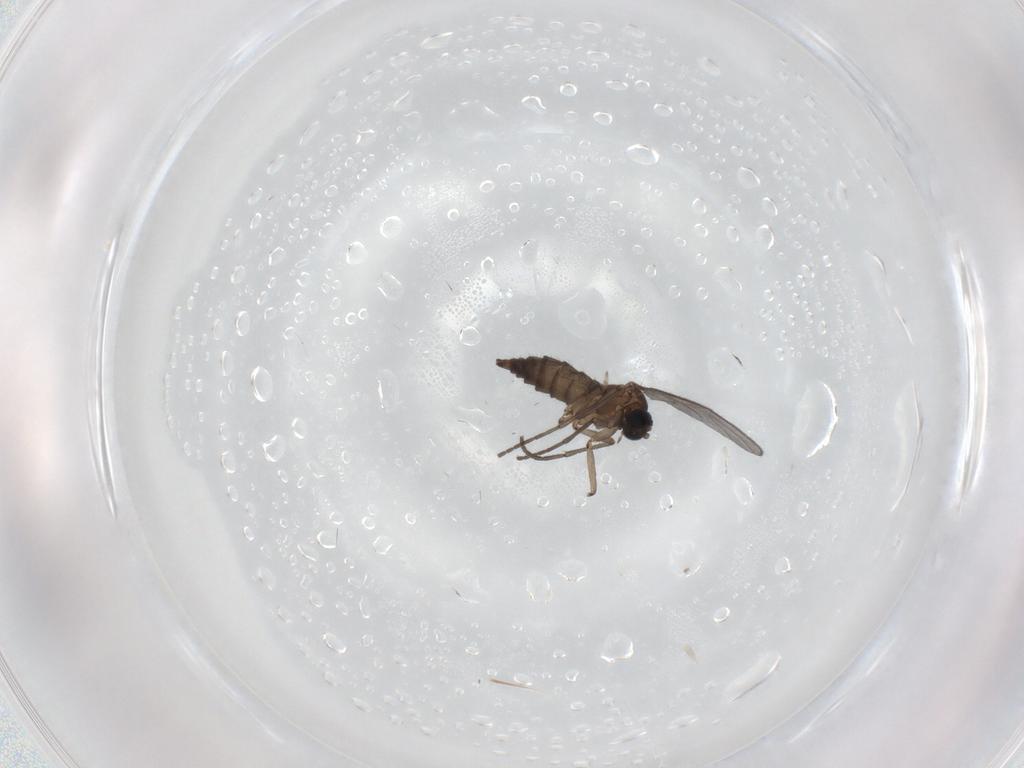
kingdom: Animalia
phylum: Arthropoda
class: Insecta
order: Diptera
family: Sciaridae
